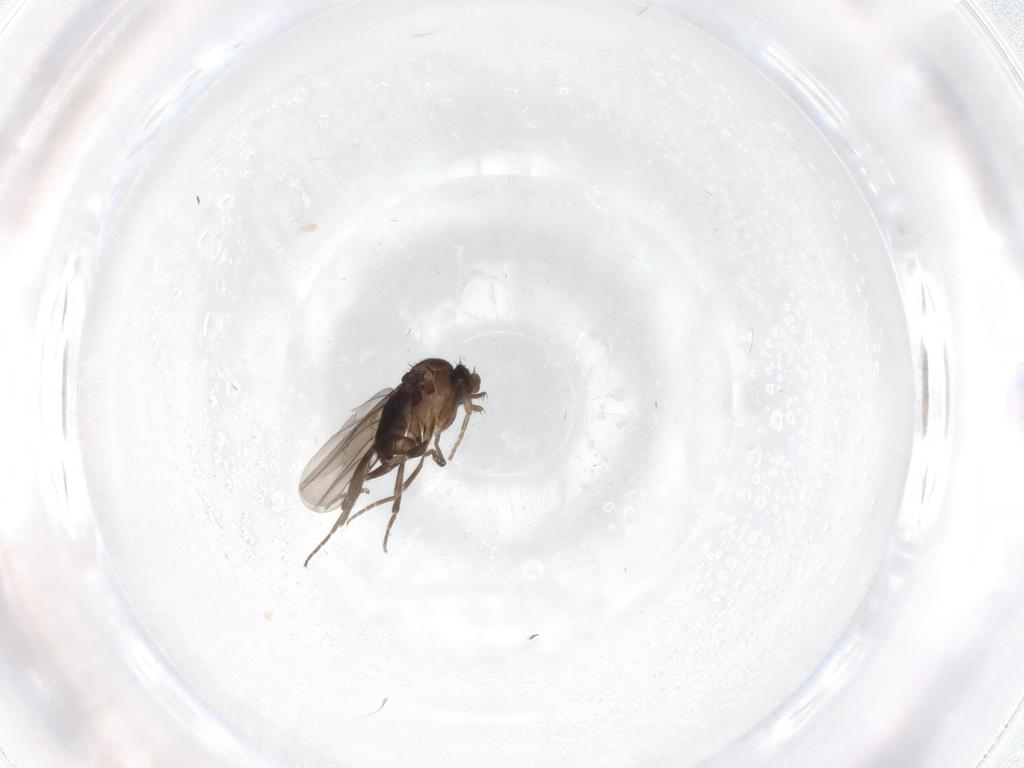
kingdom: Animalia
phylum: Arthropoda
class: Insecta
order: Diptera
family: Phoridae
